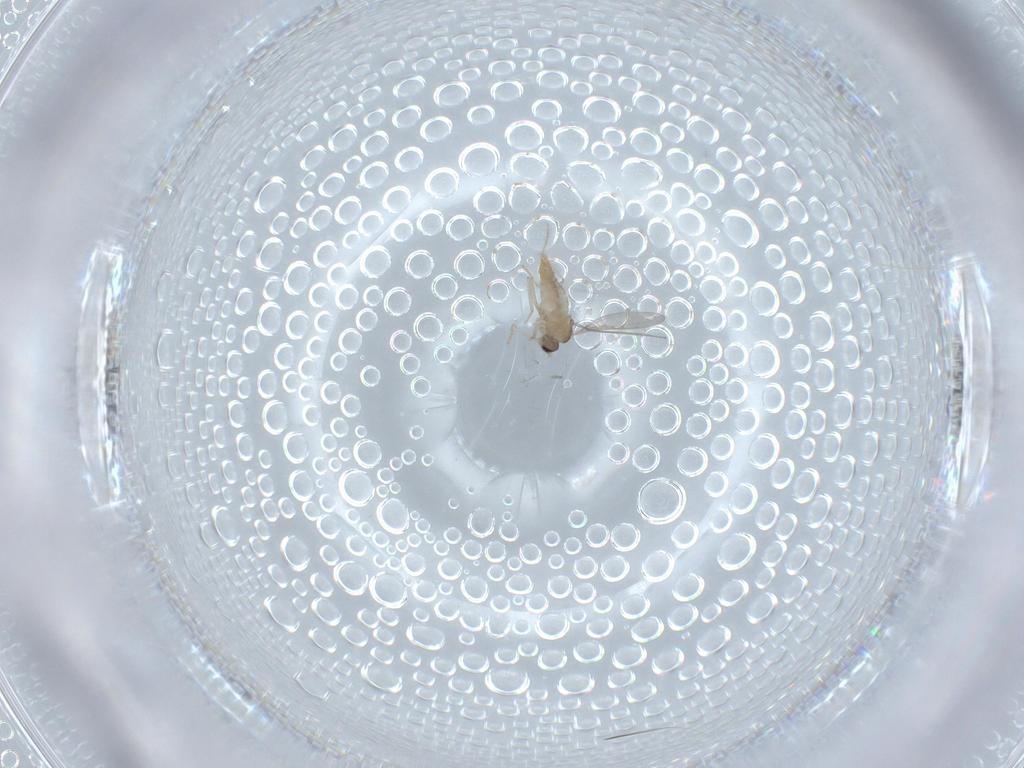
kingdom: Animalia
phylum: Arthropoda
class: Insecta
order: Diptera
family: Cecidomyiidae
